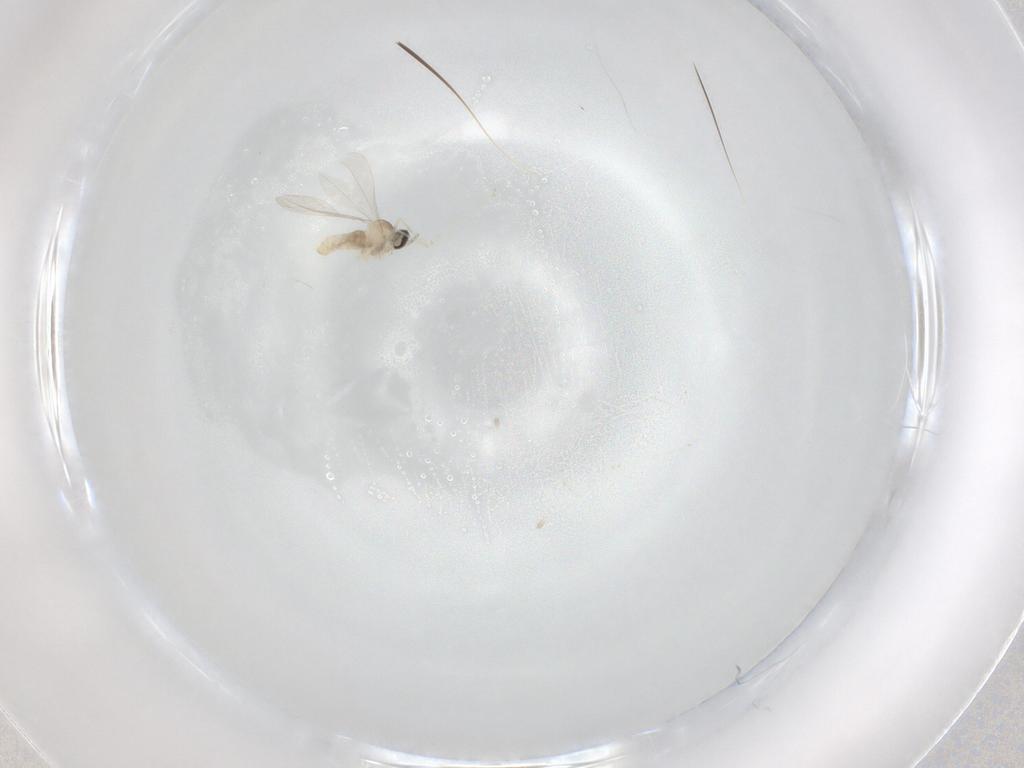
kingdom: Animalia
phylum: Arthropoda
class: Insecta
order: Diptera
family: Cecidomyiidae
